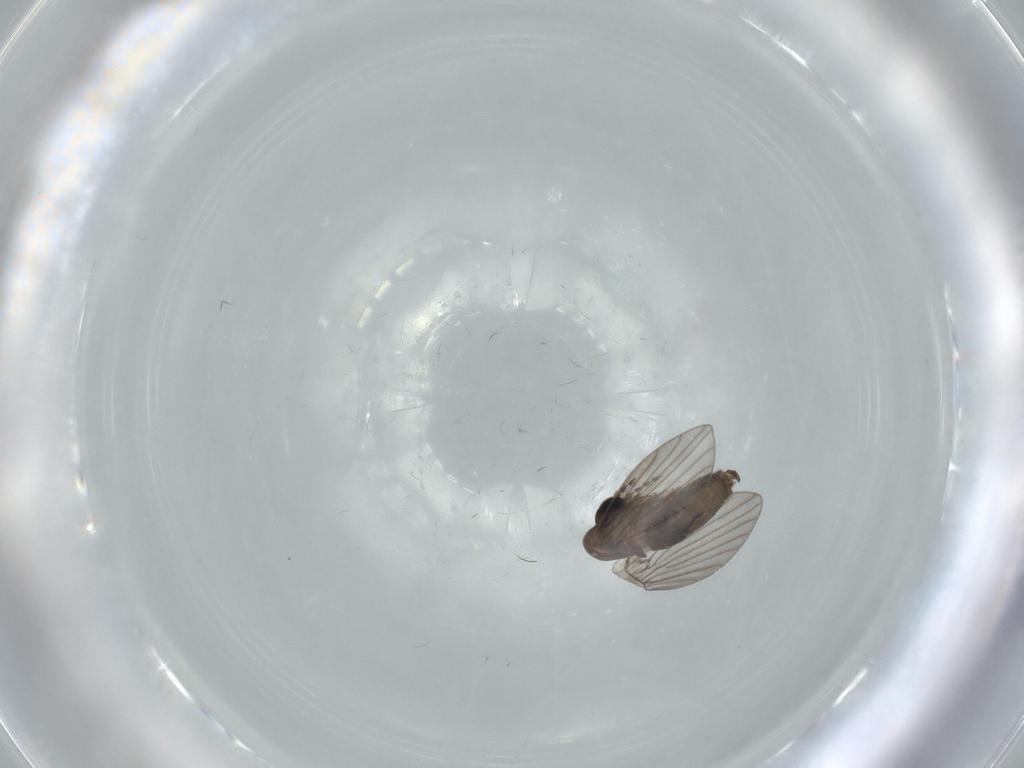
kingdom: Animalia
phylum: Arthropoda
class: Insecta
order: Diptera
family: Psychodidae
